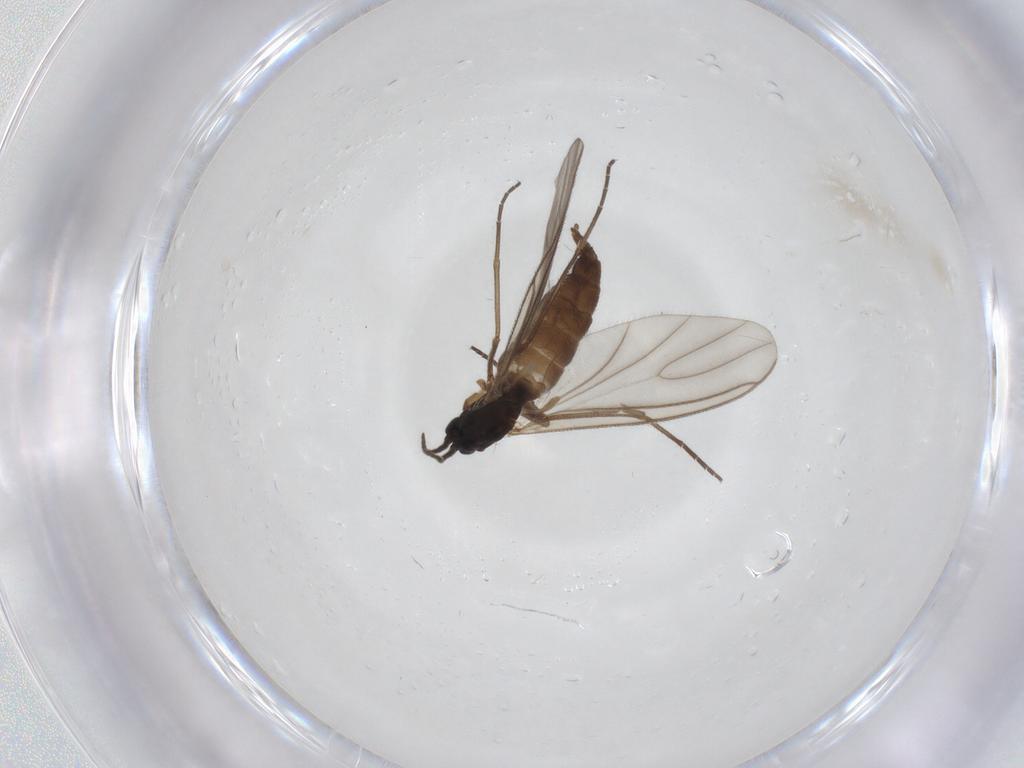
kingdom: Animalia
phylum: Arthropoda
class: Insecta
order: Diptera
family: Sciaridae
